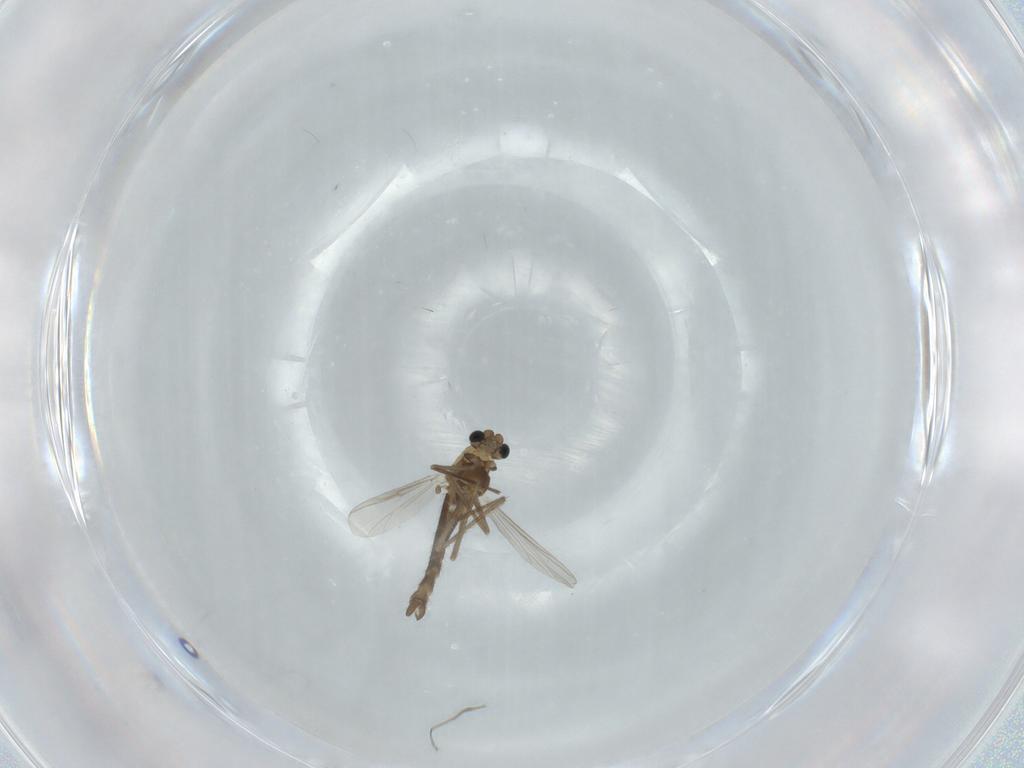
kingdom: Animalia
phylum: Arthropoda
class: Insecta
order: Diptera
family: Chironomidae
